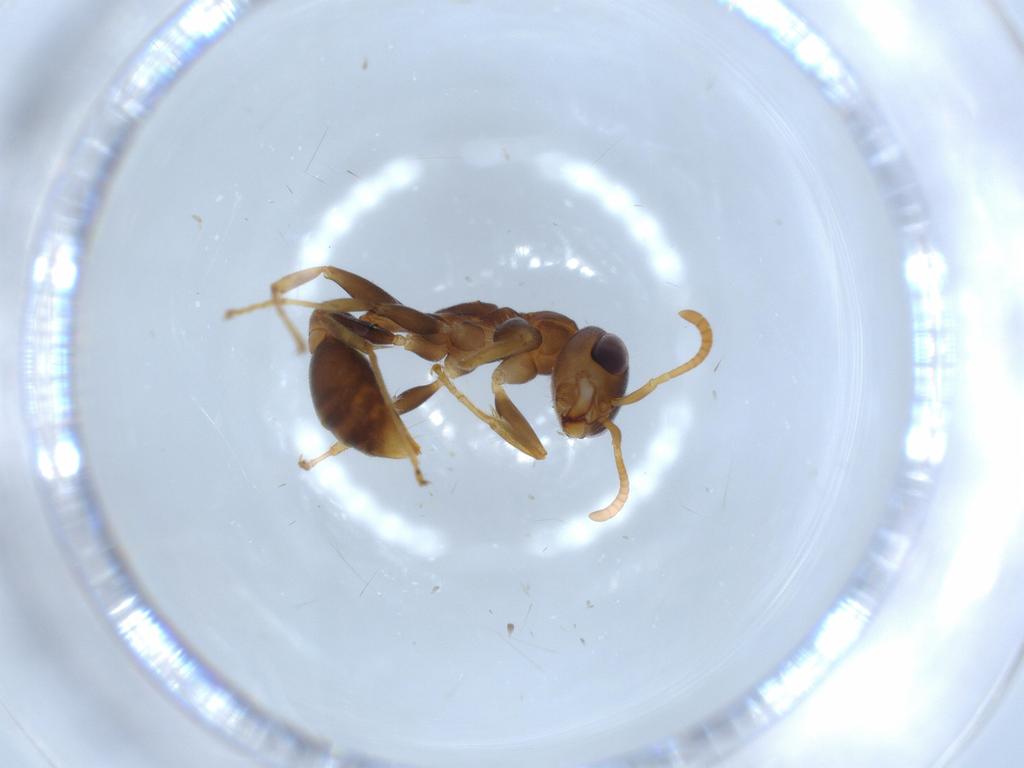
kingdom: Animalia
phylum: Arthropoda
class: Insecta
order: Hymenoptera
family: Formicidae
